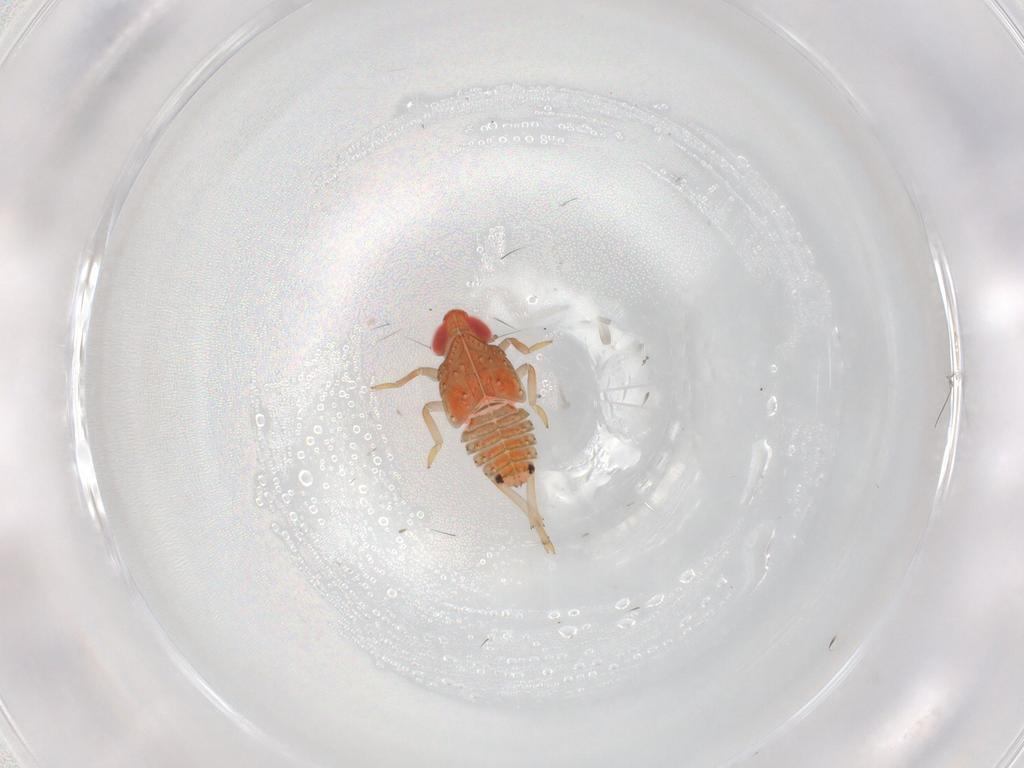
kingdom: Animalia
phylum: Arthropoda
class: Insecta
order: Hemiptera
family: Issidae
